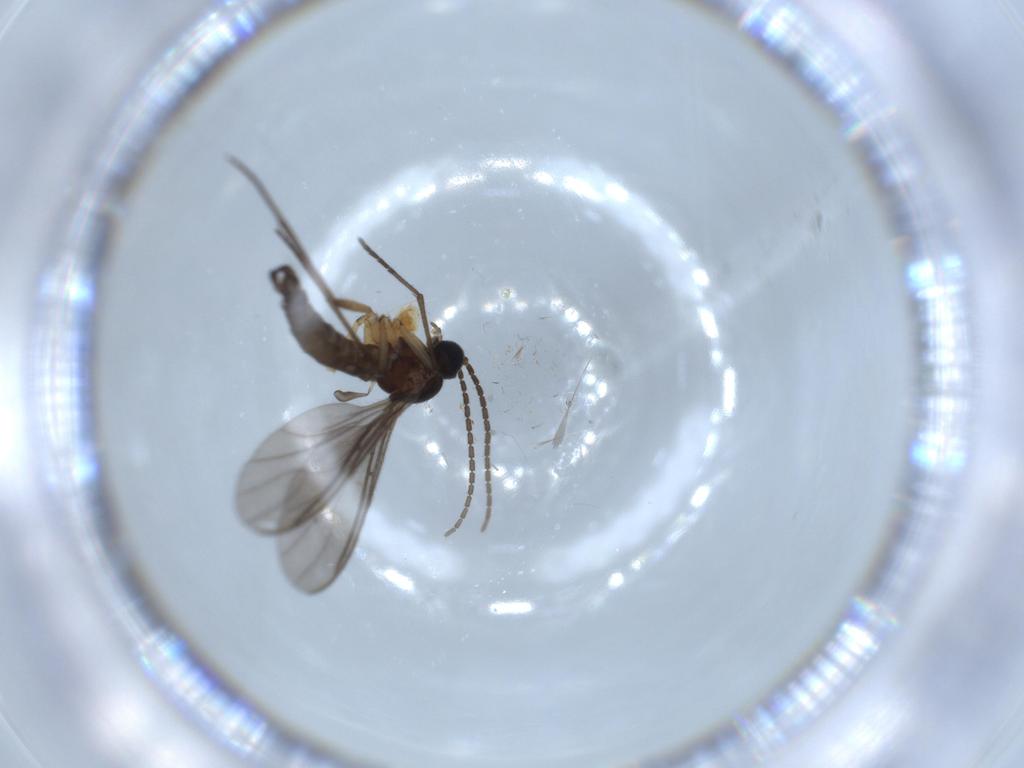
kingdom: Animalia
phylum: Arthropoda
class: Insecta
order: Diptera
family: Sciaridae
